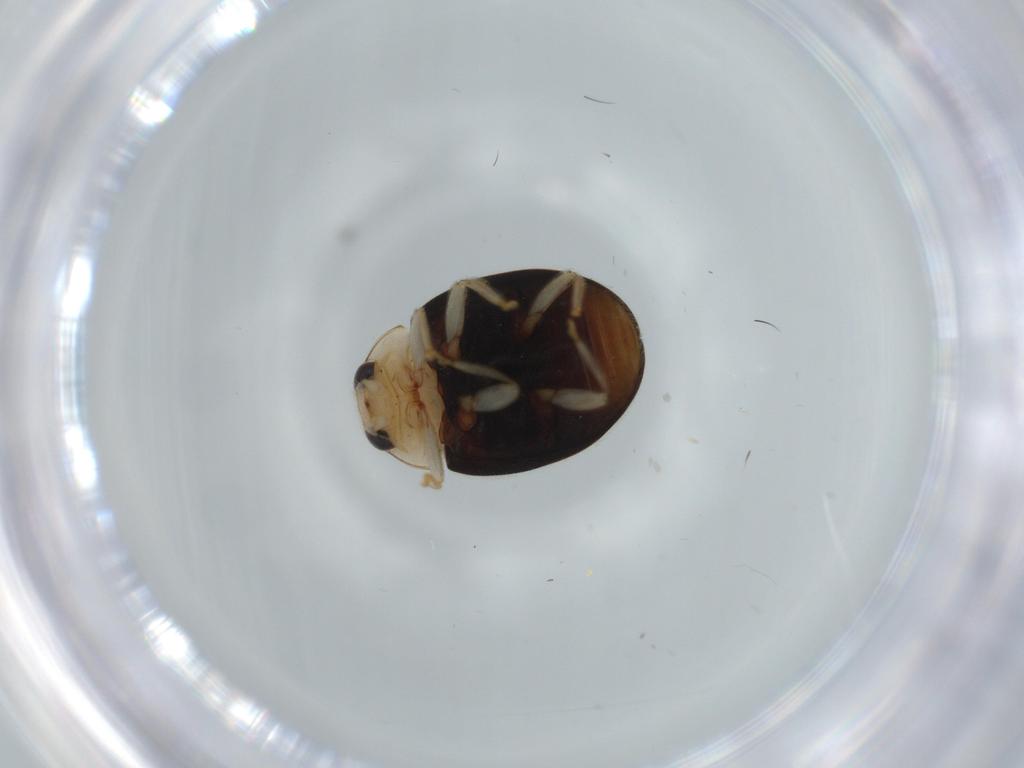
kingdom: Animalia
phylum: Arthropoda
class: Insecta
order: Coleoptera
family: Coccinellidae
